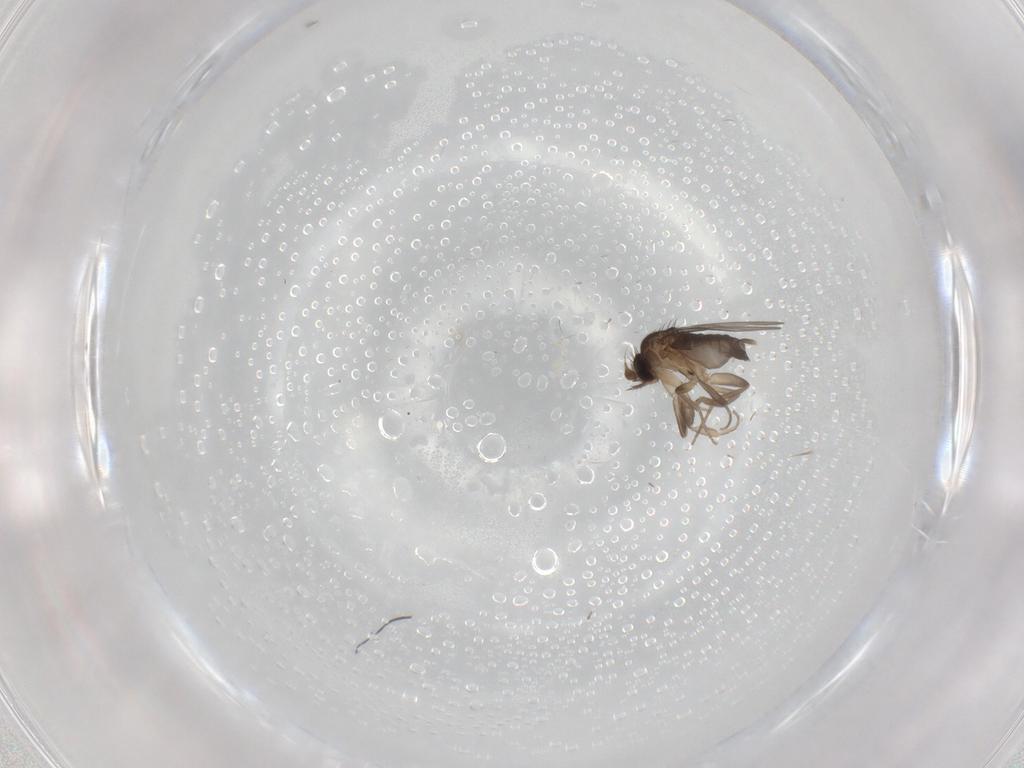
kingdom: Animalia
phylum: Arthropoda
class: Insecta
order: Diptera
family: Phoridae
